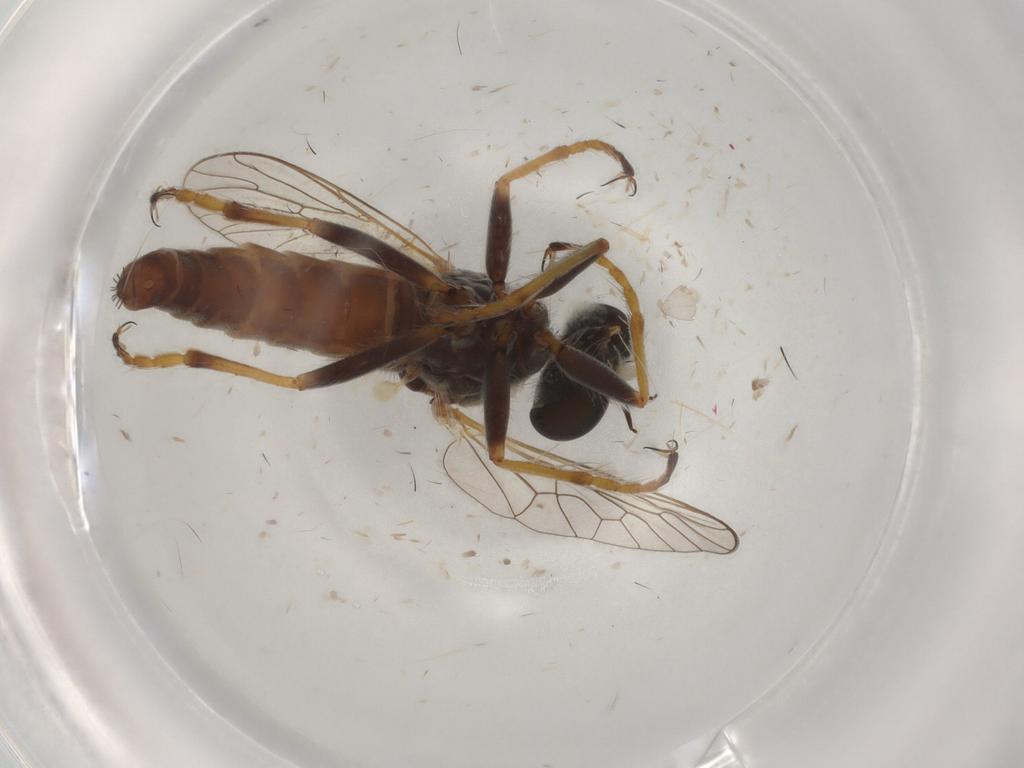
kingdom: Animalia
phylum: Arthropoda
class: Insecta
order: Diptera
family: Asilidae
